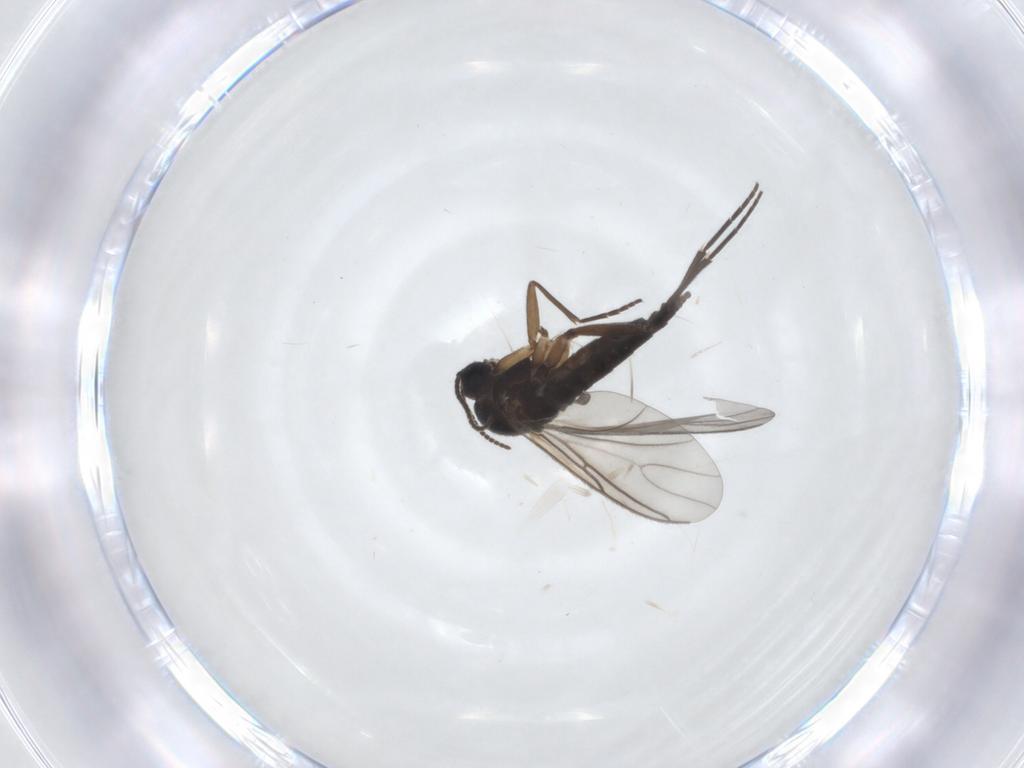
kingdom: Animalia
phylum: Arthropoda
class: Insecta
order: Diptera
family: Sciaridae
